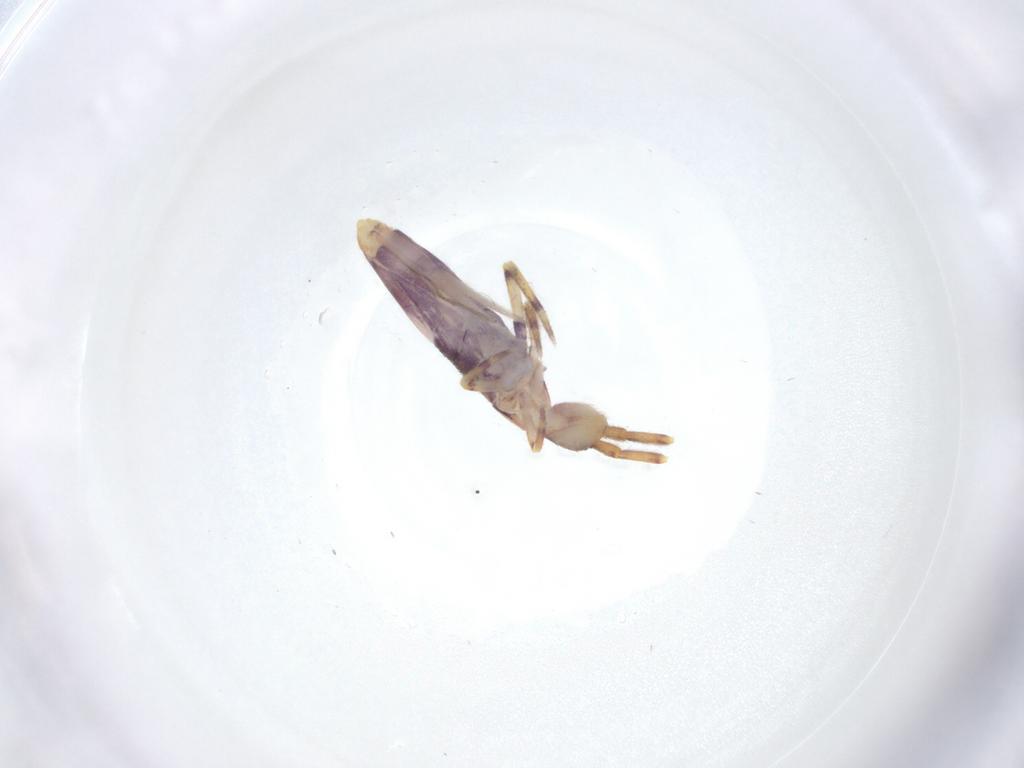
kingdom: Animalia
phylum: Arthropoda
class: Collembola
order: Entomobryomorpha
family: Entomobryidae
